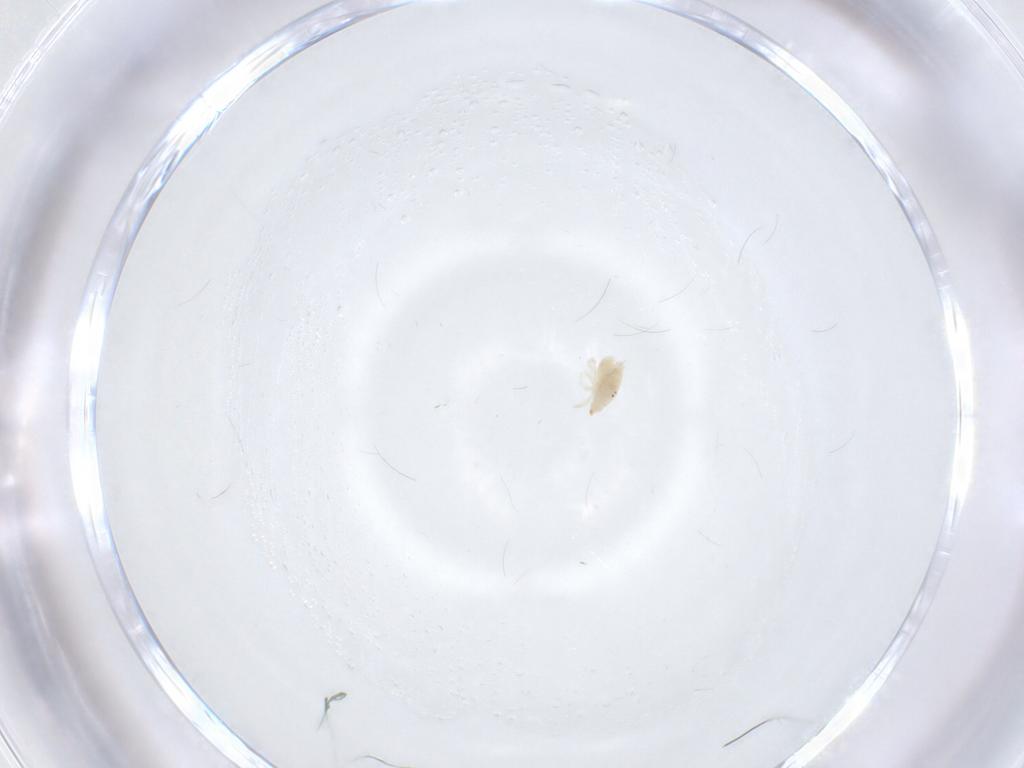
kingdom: Animalia
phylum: Arthropoda
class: Arachnida
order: Trombidiformes
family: Bdellidae
